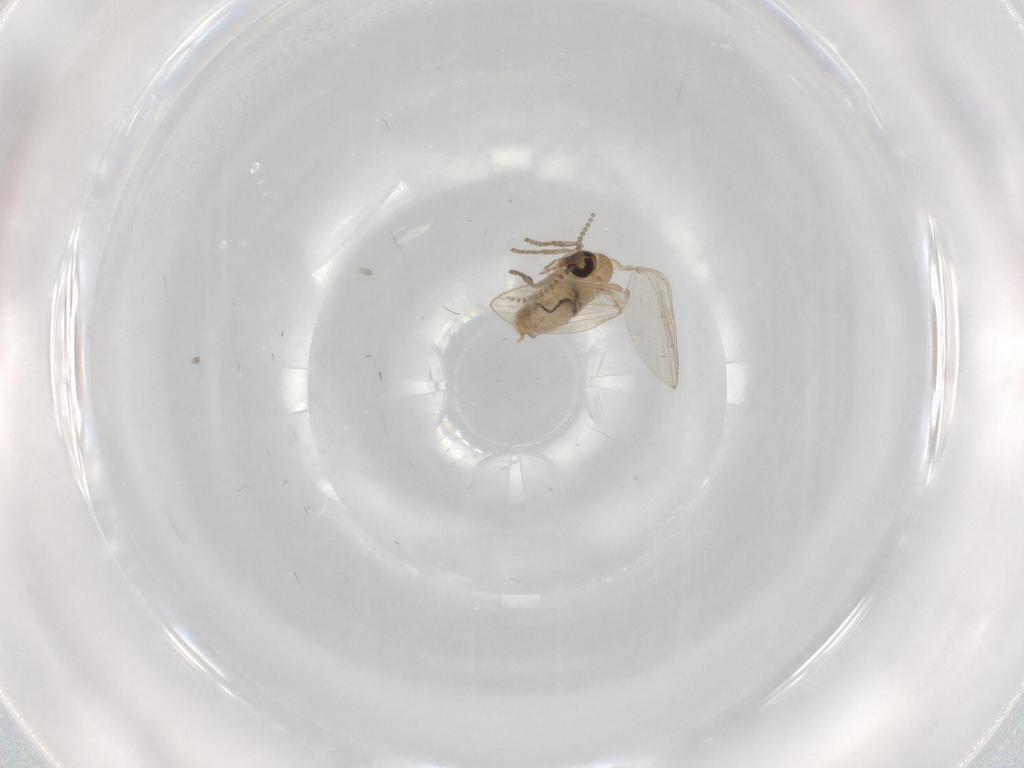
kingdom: Animalia
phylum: Arthropoda
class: Insecta
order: Diptera
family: Psychodidae
